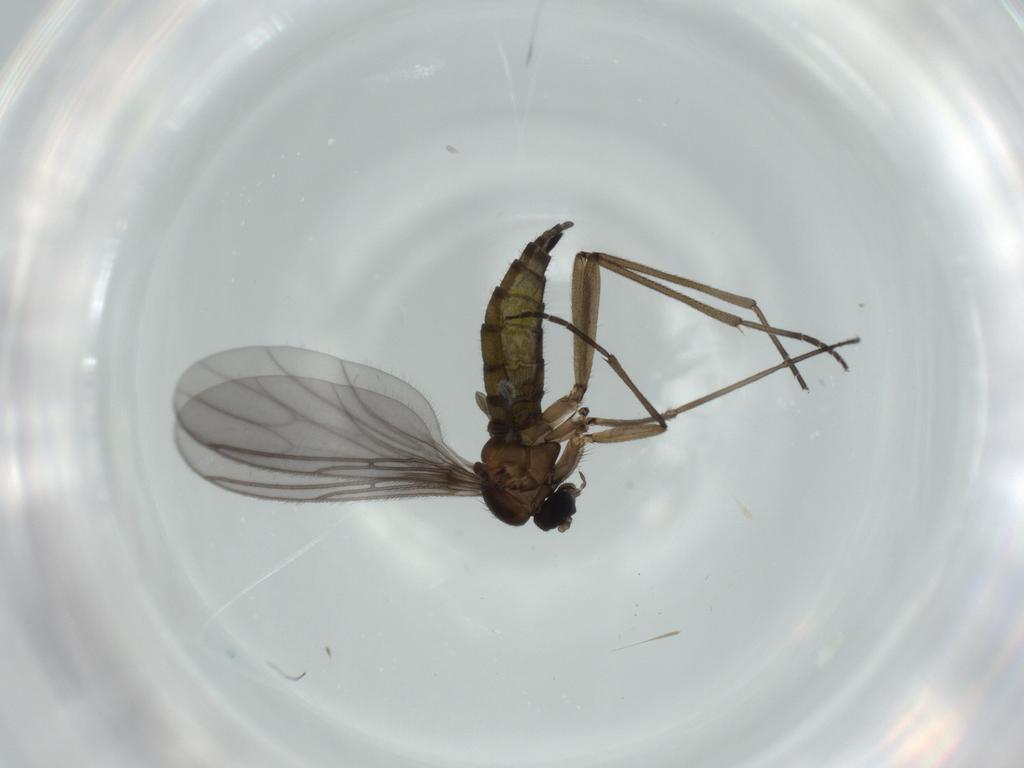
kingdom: Animalia
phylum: Arthropoda
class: Insecta
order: Diptera
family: Sciaridae
